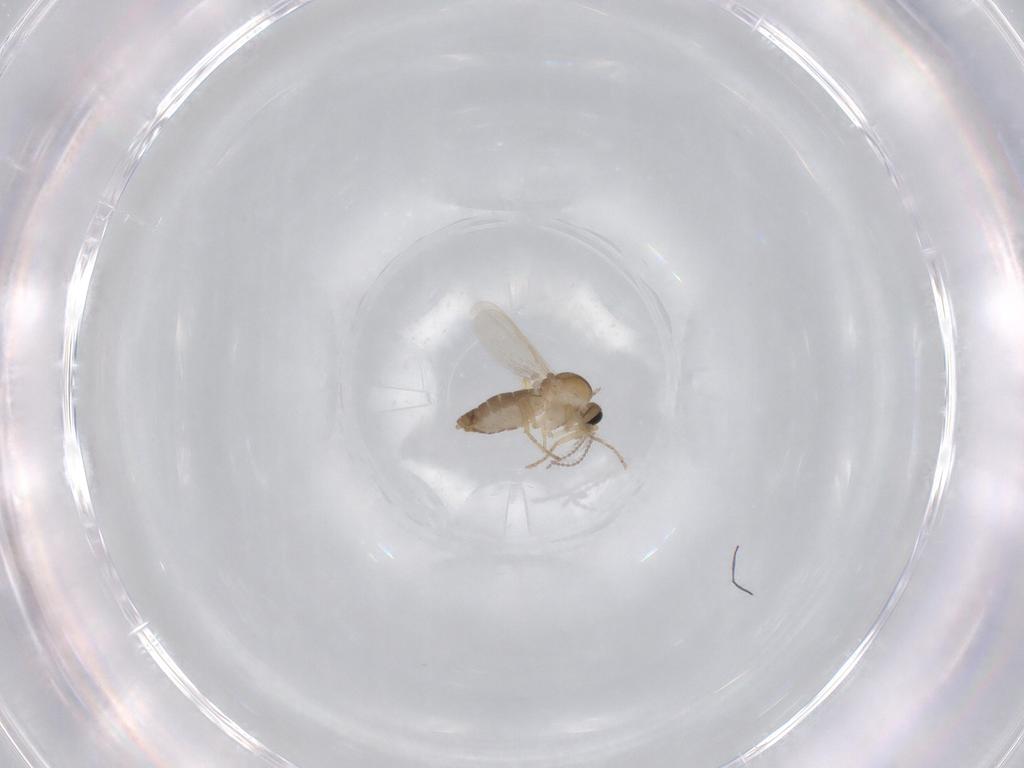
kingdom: Animalia
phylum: Arthropoda
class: Insecta
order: Diptera
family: Ceratopogonidae
